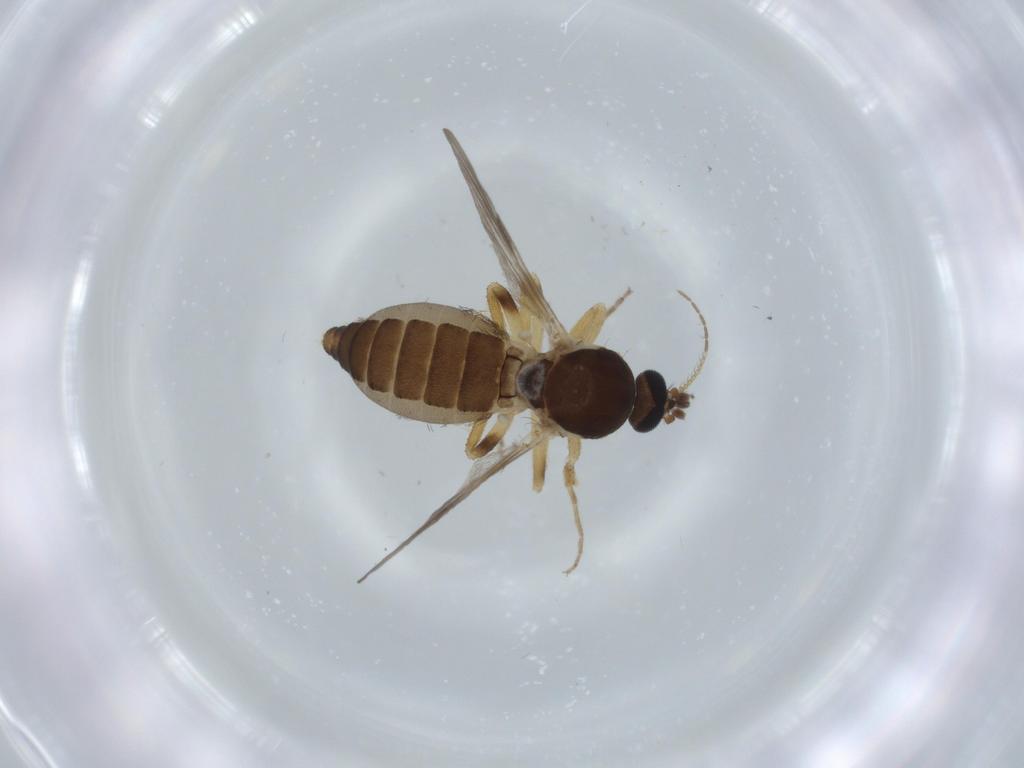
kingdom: Animalia
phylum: Arthropoda
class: Insecta
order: Diptera
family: Ceratopogonidae
